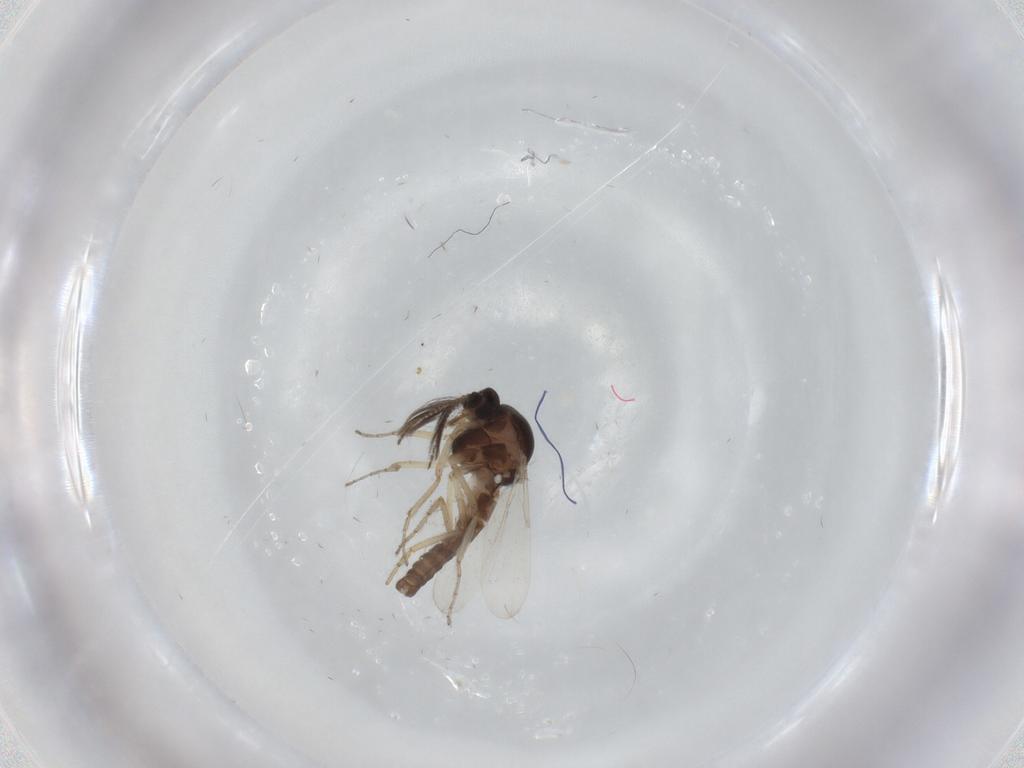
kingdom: Animalia
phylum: Arthropoda
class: Insecta
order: Diptera
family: Ceratopogonidae
